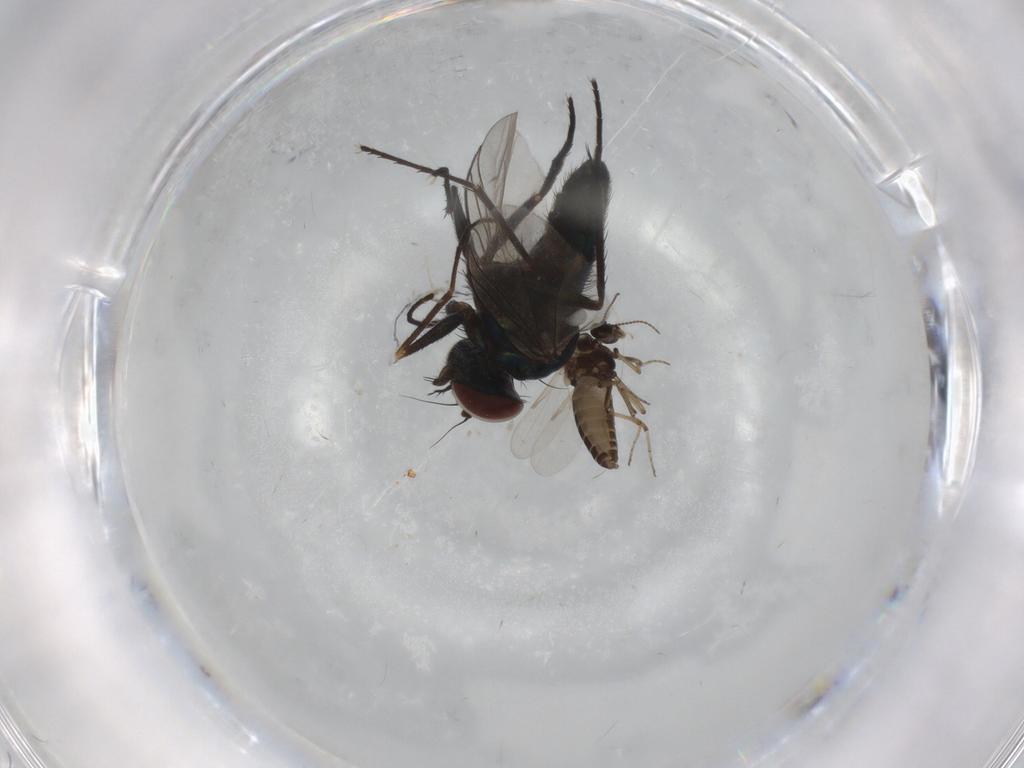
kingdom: Animalia
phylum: Arthropoda
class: Insecta
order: Diptera
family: Dolichopodidae
